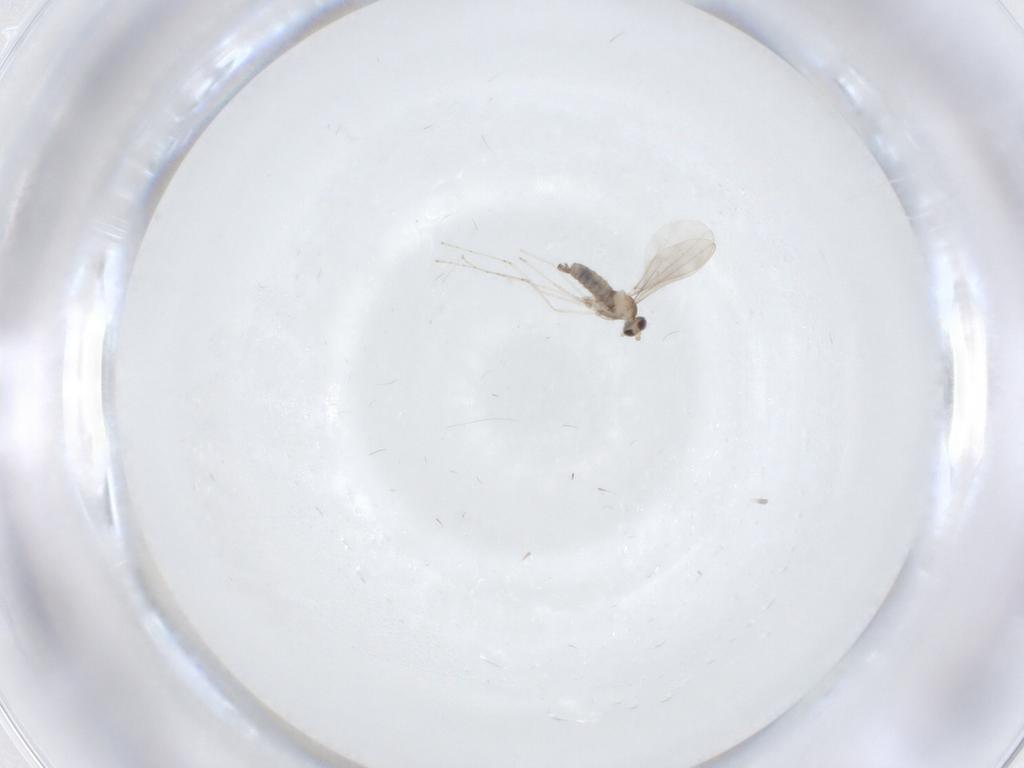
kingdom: Animalia
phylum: Arthropoda
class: Insecta
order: Diptera
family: Cecidomyiidae
